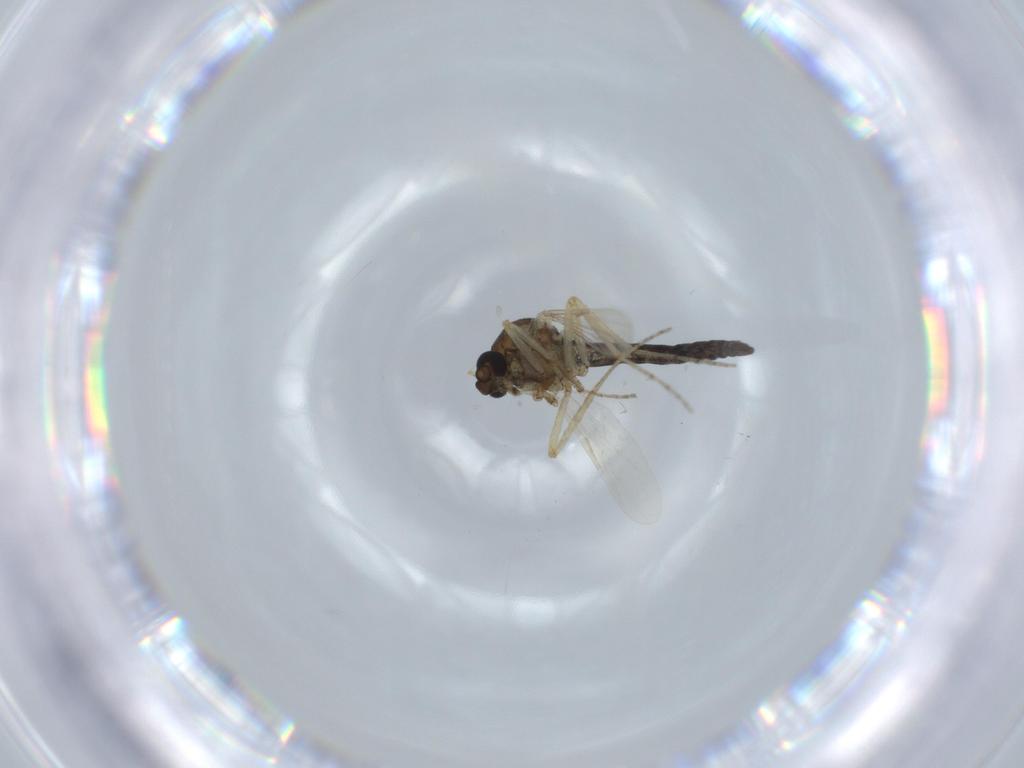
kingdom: Animalia
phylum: Arthropoda
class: Insecta
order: Diptera
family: Ceratopogonidae
